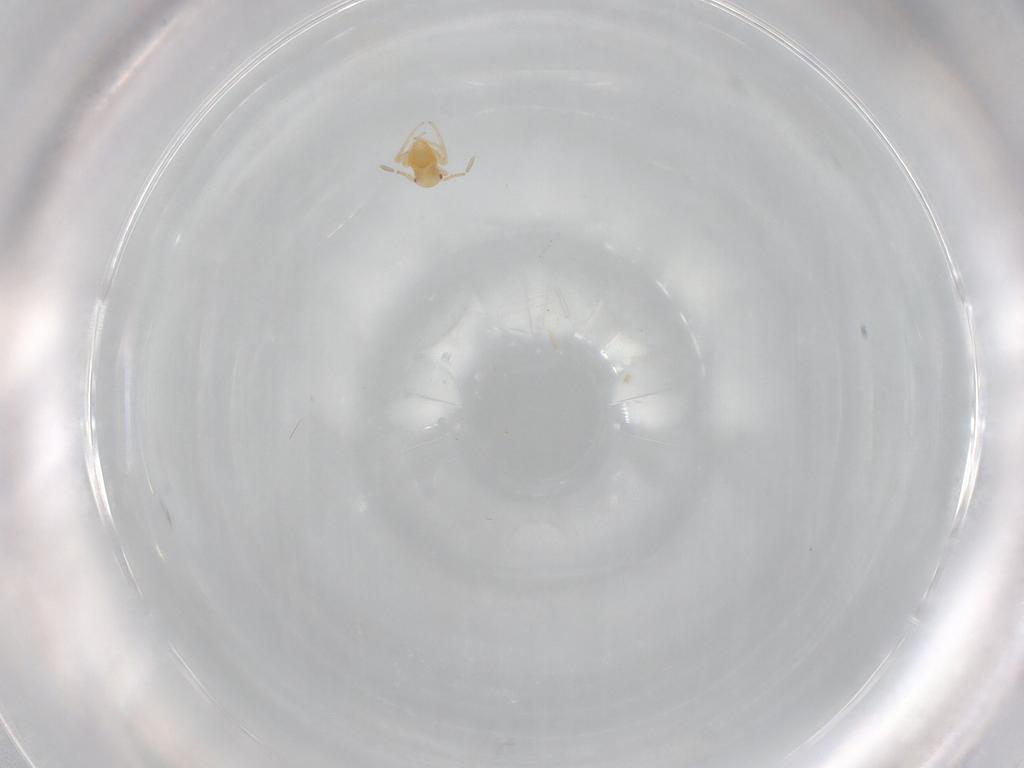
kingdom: Animalia
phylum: Arthropoda
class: Insecta
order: Hemiptera
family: Miridae
